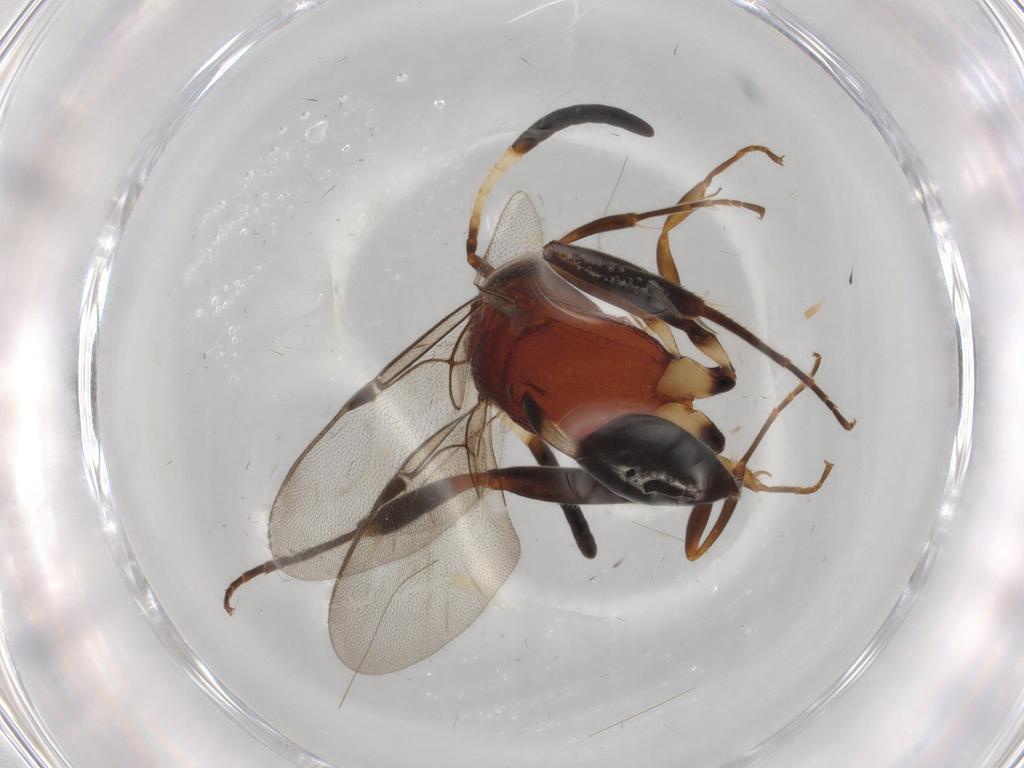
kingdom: Animalia
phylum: Arthropoda
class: Insecta
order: Hymenoptera
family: Evaniidae
